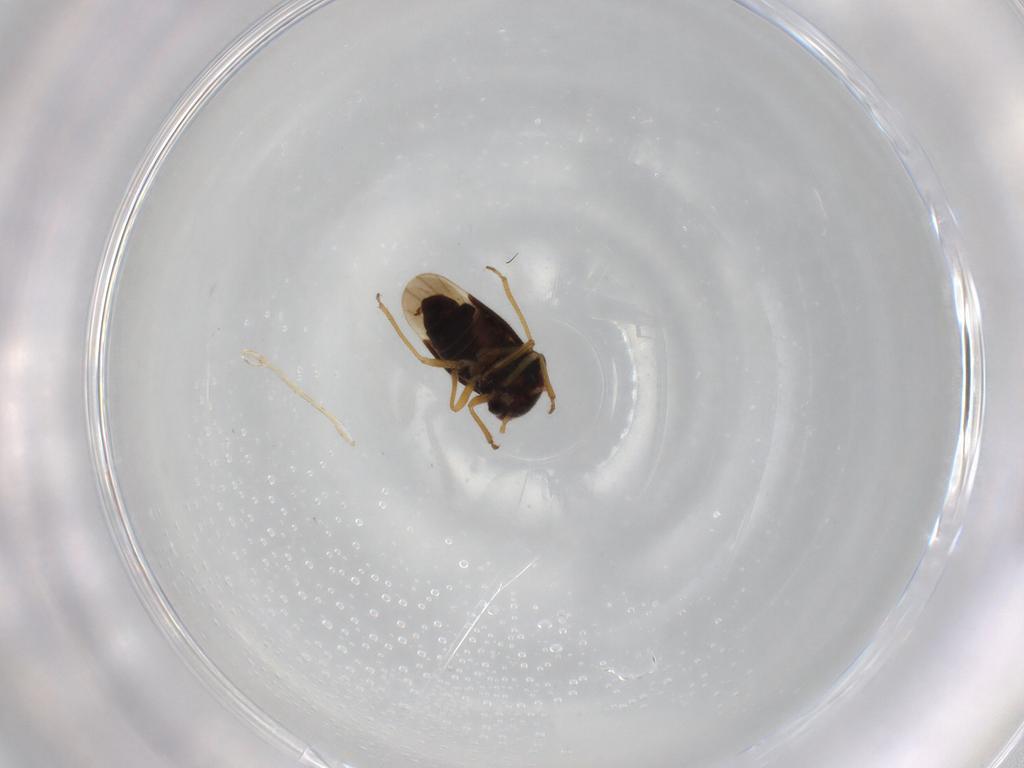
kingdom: Animalia
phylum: Arthropoda
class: Insecta
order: Hemiptera
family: Schizopteridae
